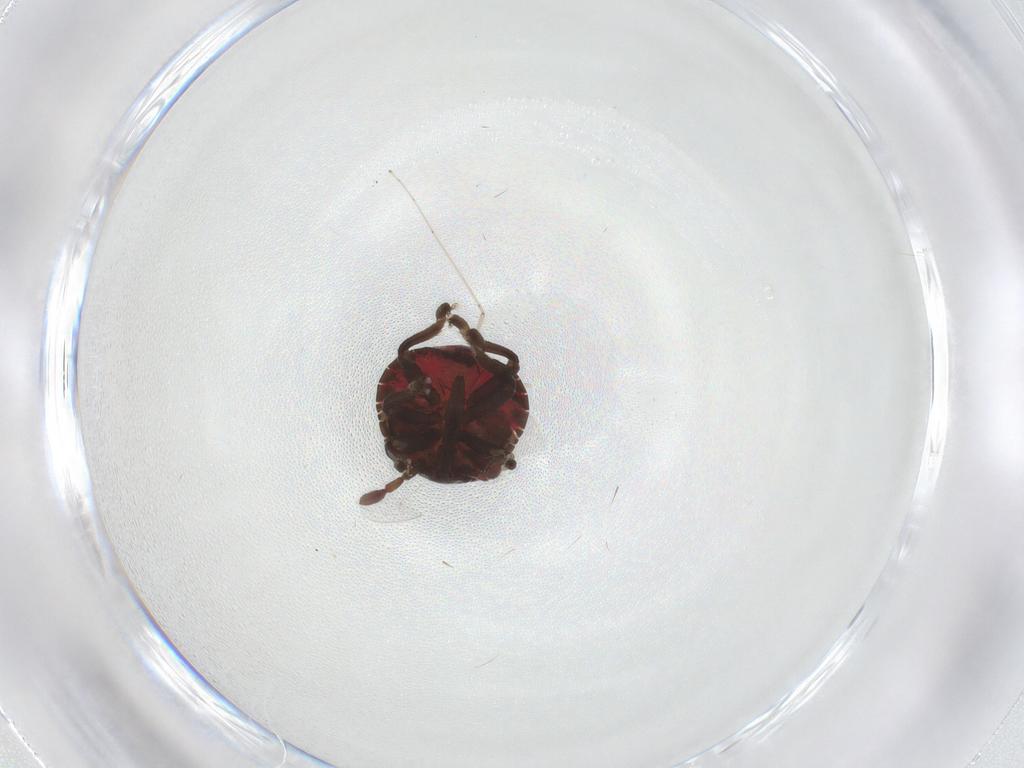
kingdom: Animalia
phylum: Arthropoda
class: Insecta
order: Hemiptera
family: Pentatomidae
